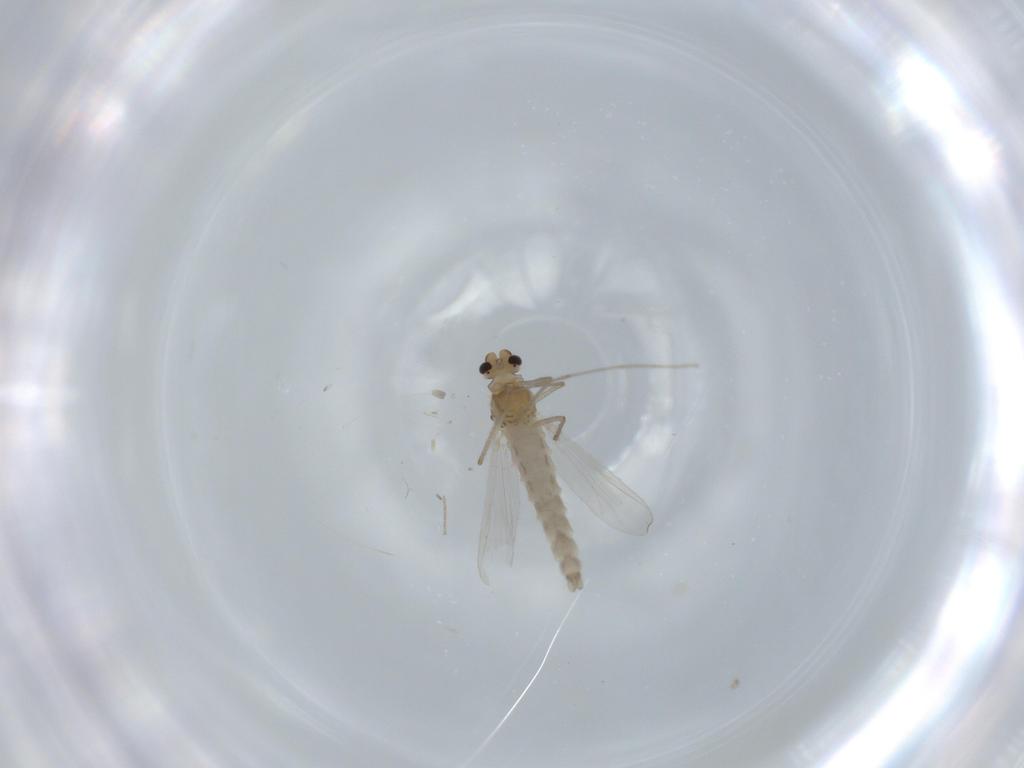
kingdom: Animalia
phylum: Arthropoda
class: Insecta
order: Diptera
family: Chironomidae
